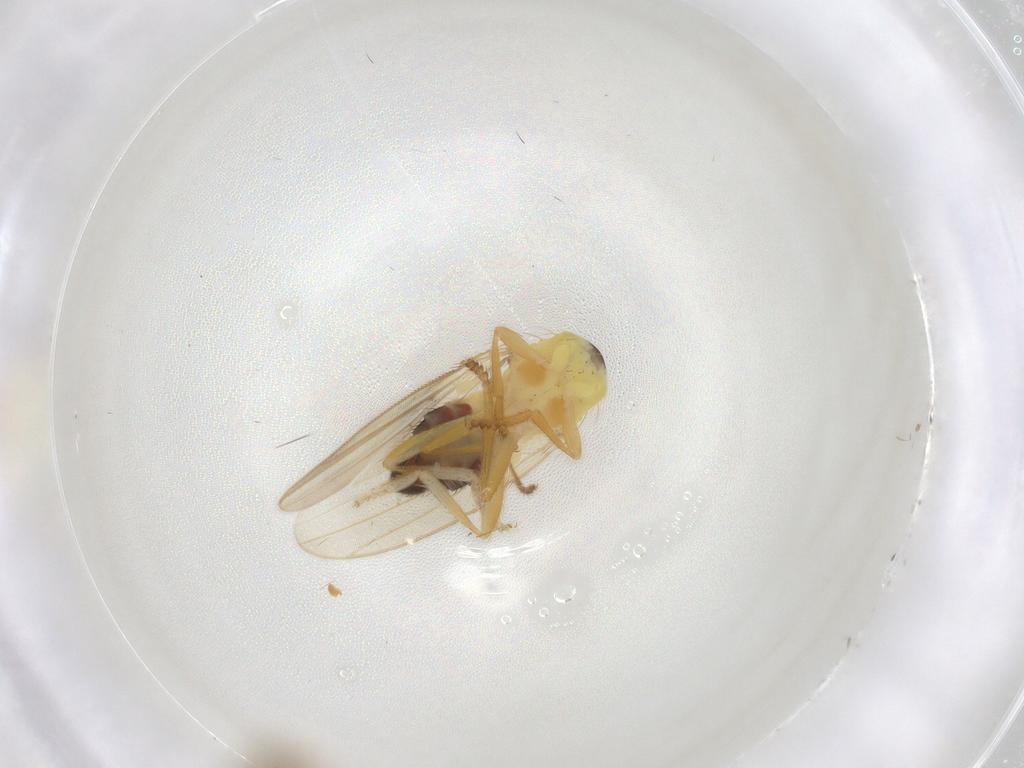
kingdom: Animalia
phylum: Arthropoda
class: Insecta
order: Diptera
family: Periscelididae
